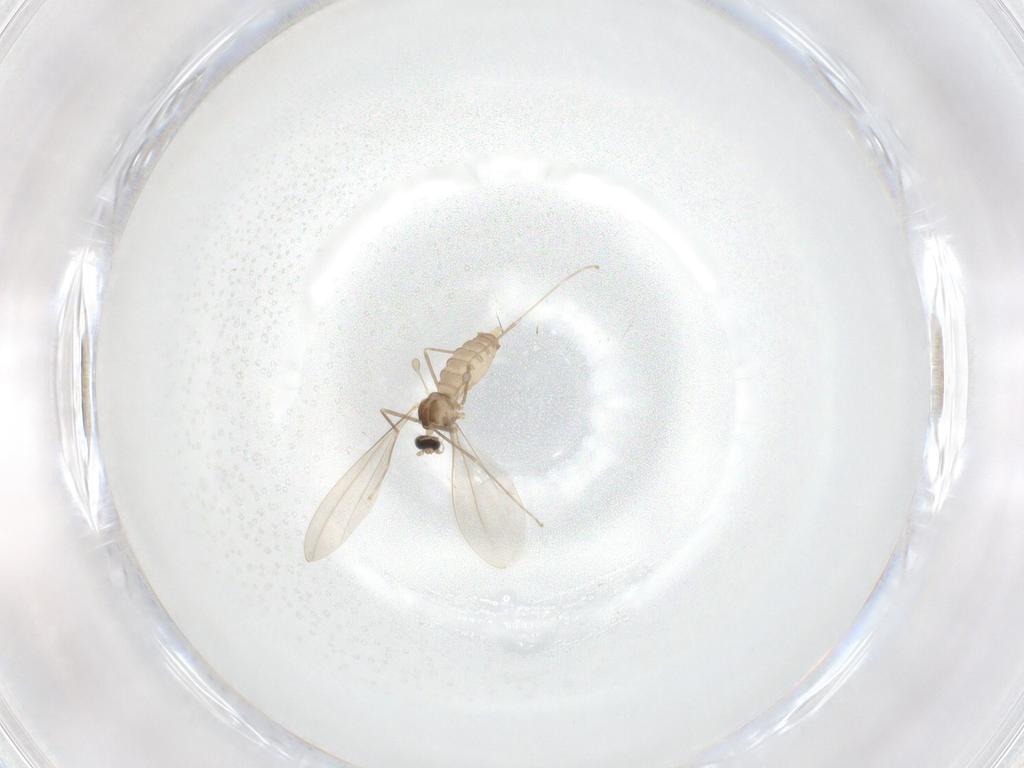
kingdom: Animalia
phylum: Arthropoda
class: Insecta
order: Diptera
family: Cecidomyiidae
